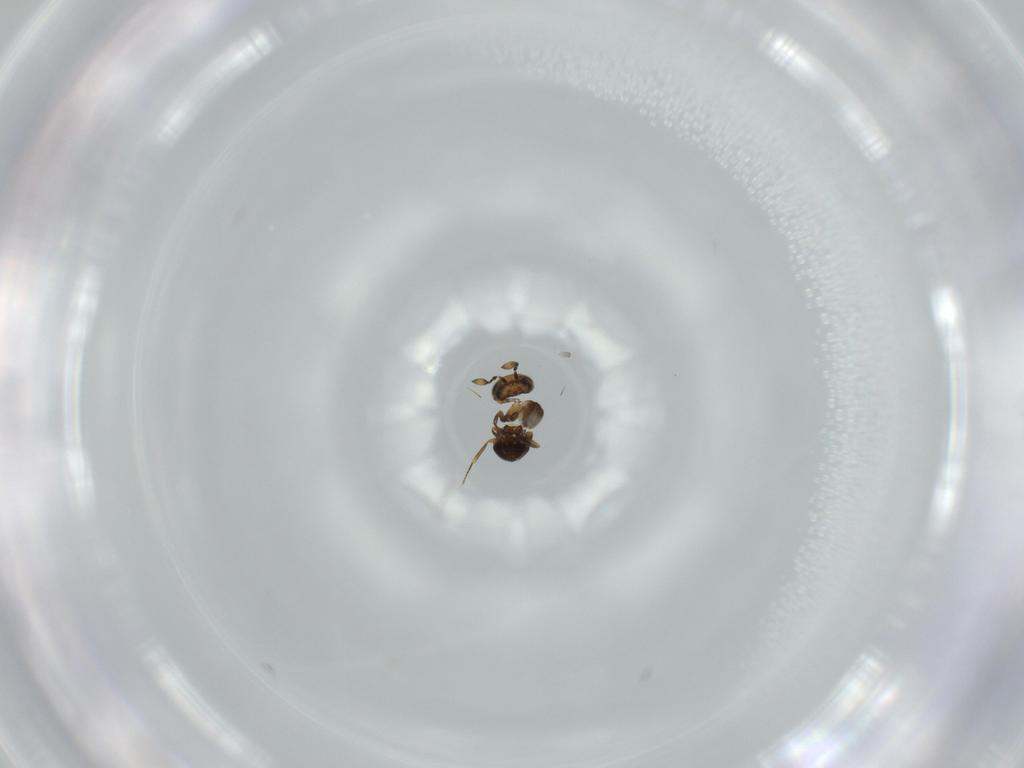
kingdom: Animalia
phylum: Arthropoda
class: Insecta
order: Hymenoptera
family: Scelionidae
